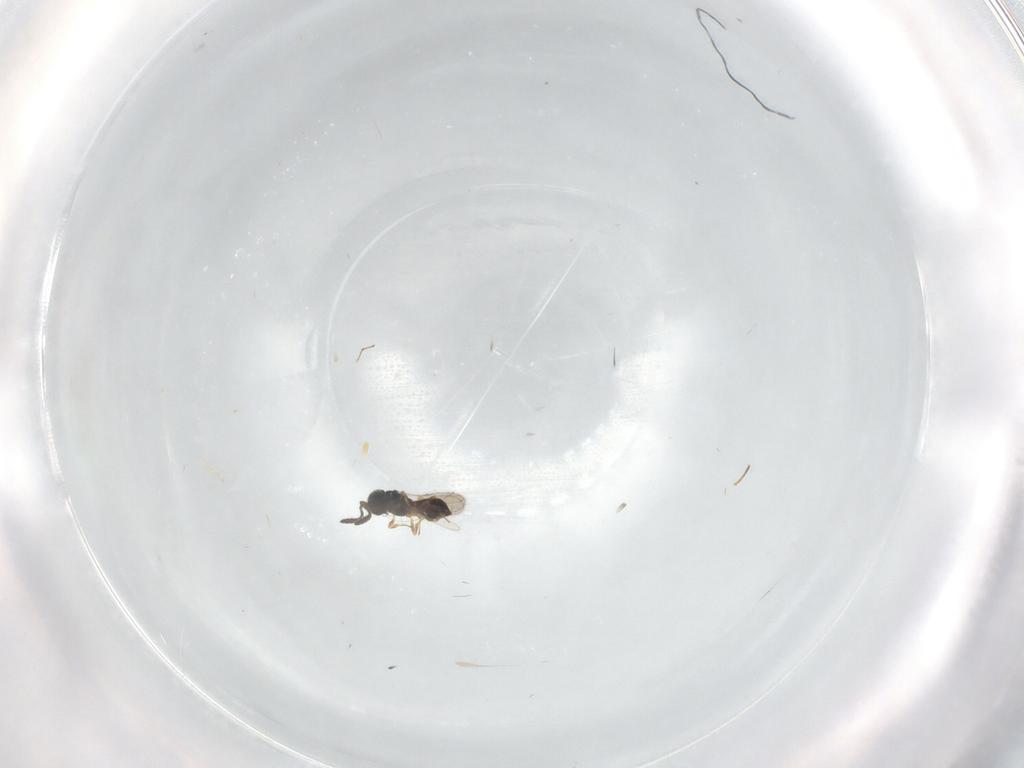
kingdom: Animalia
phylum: Arthropoda
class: Insecta
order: Hymenoptera
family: Scelionidae
